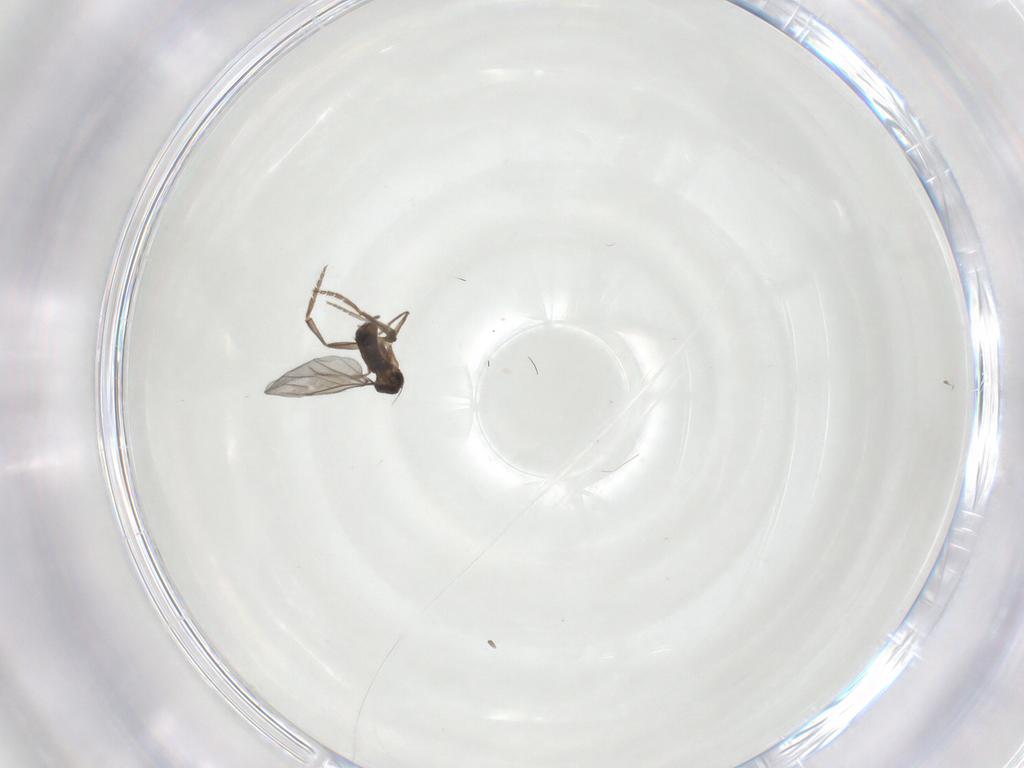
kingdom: Animalia
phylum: Arthropoda
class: Insecta
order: Diptera
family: Phoridae
